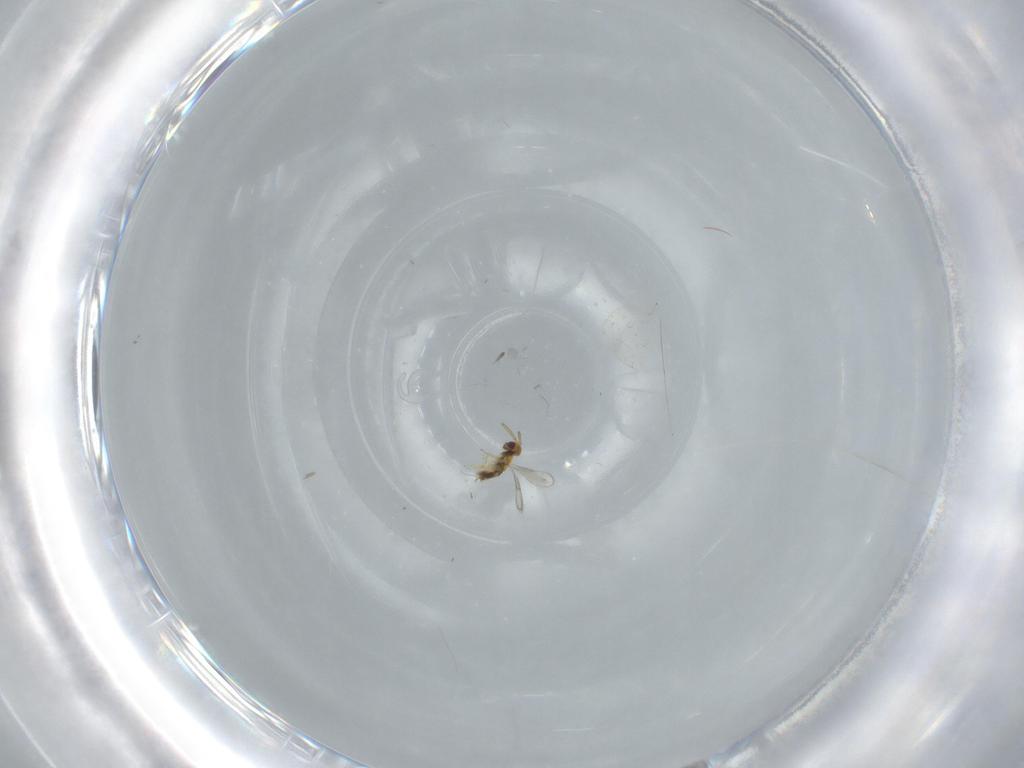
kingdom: Animalia
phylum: Arthropoda
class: Insecta
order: Hymenoptera
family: Aphelinidae
